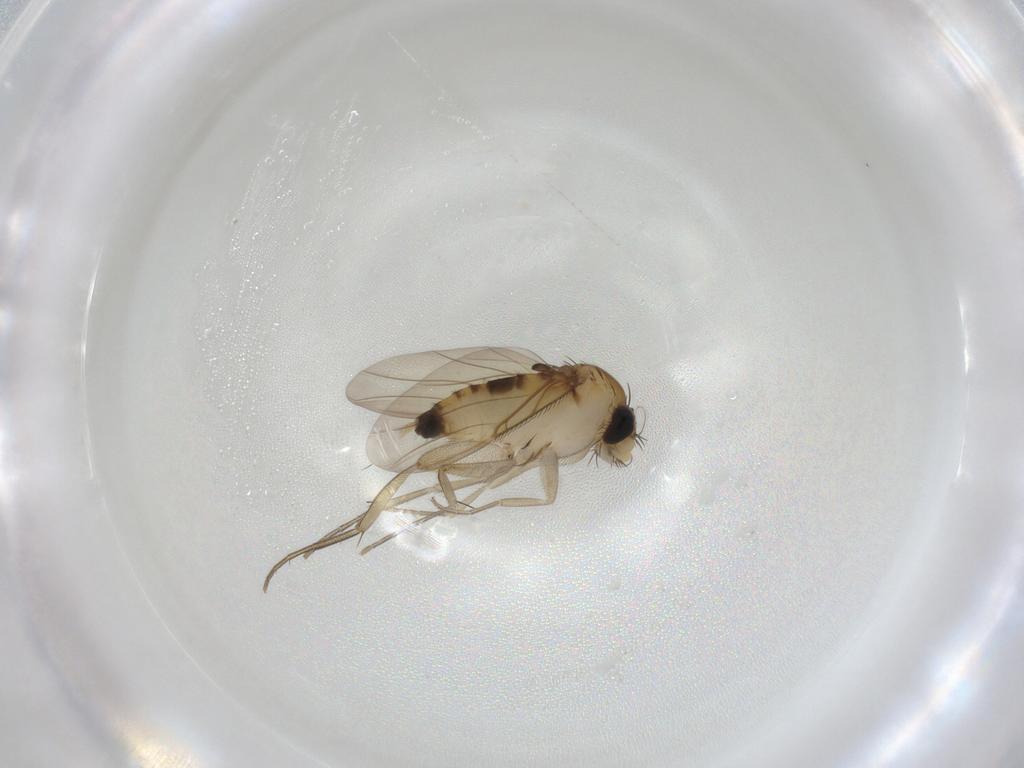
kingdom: Animalia
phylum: Arthropoda
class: Insecta
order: Diptera
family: Phoridae
